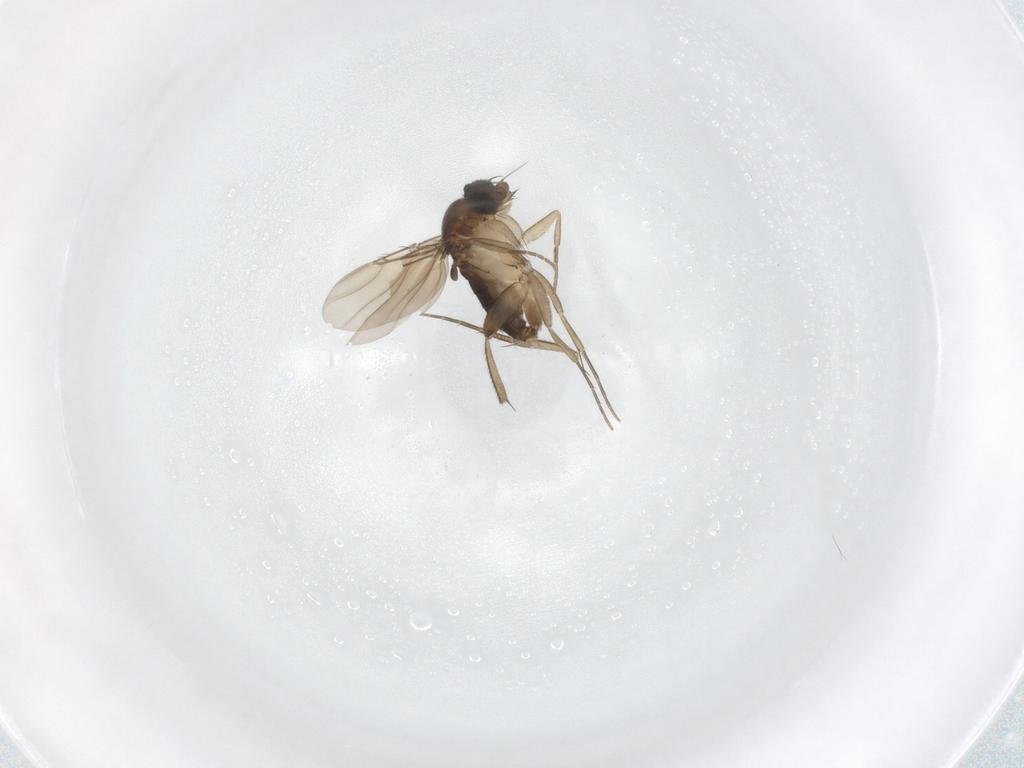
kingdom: Animalia
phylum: Arthropoda
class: Insecta
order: Diptera
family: Phoridae
